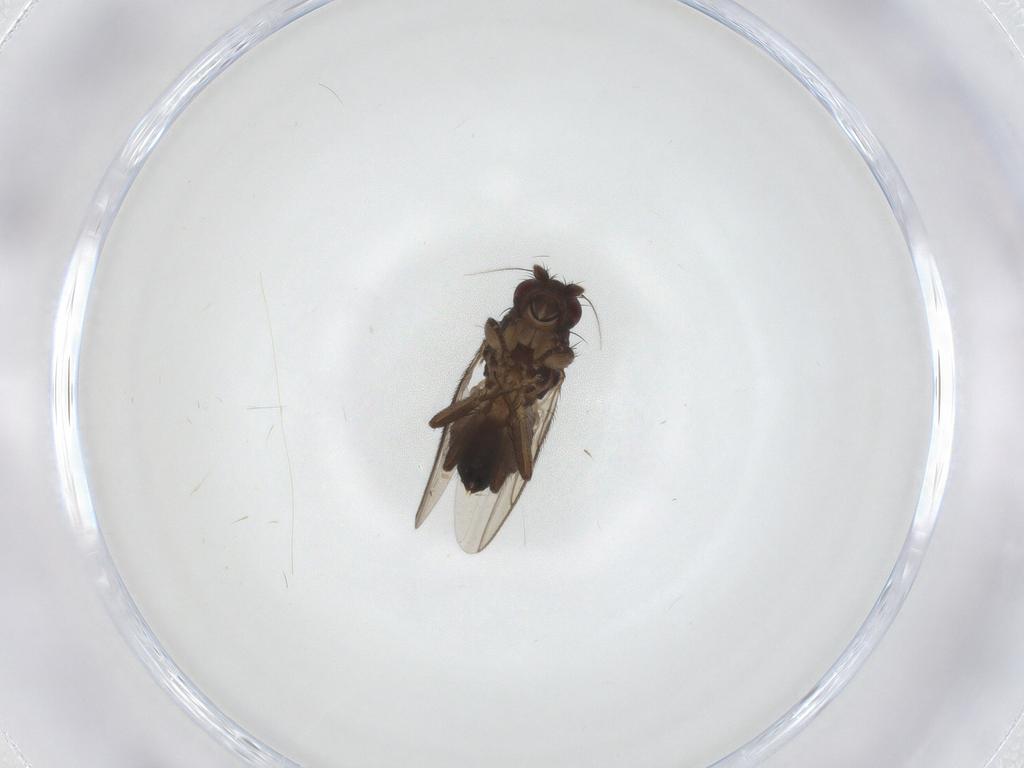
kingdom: Animalia
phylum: Arthropoda
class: Insecta
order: Diptera
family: Sphaeroceridae
